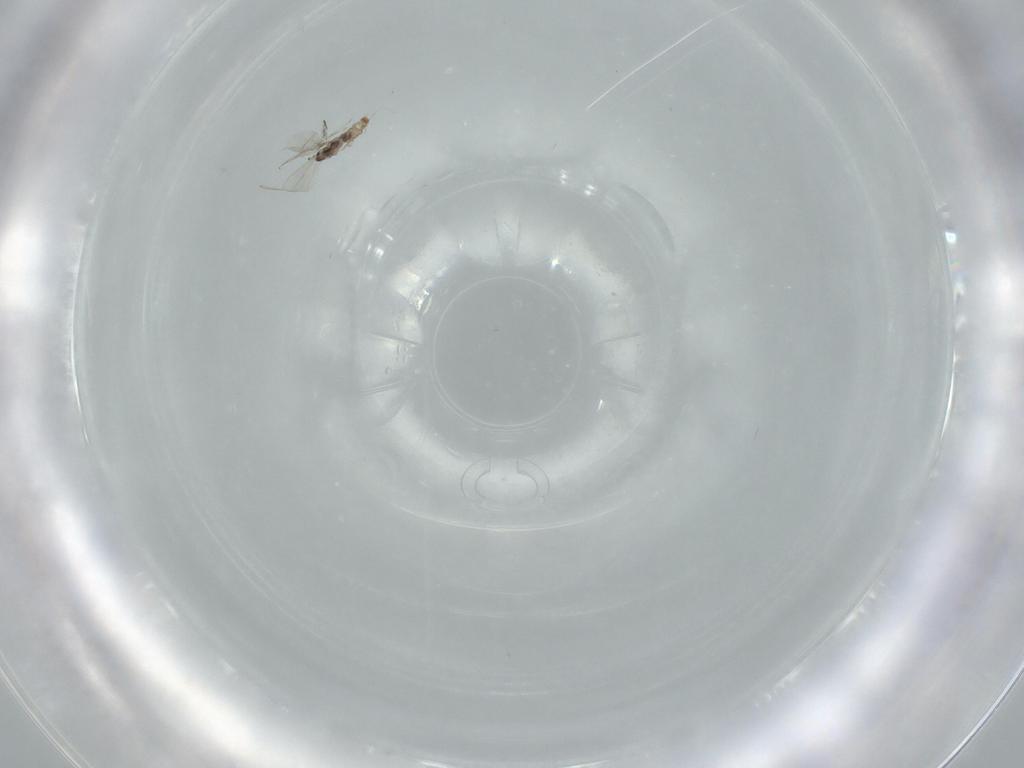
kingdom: Animalia
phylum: Arthropoda
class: Insecta
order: Diptera
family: Cecidomyiidae
